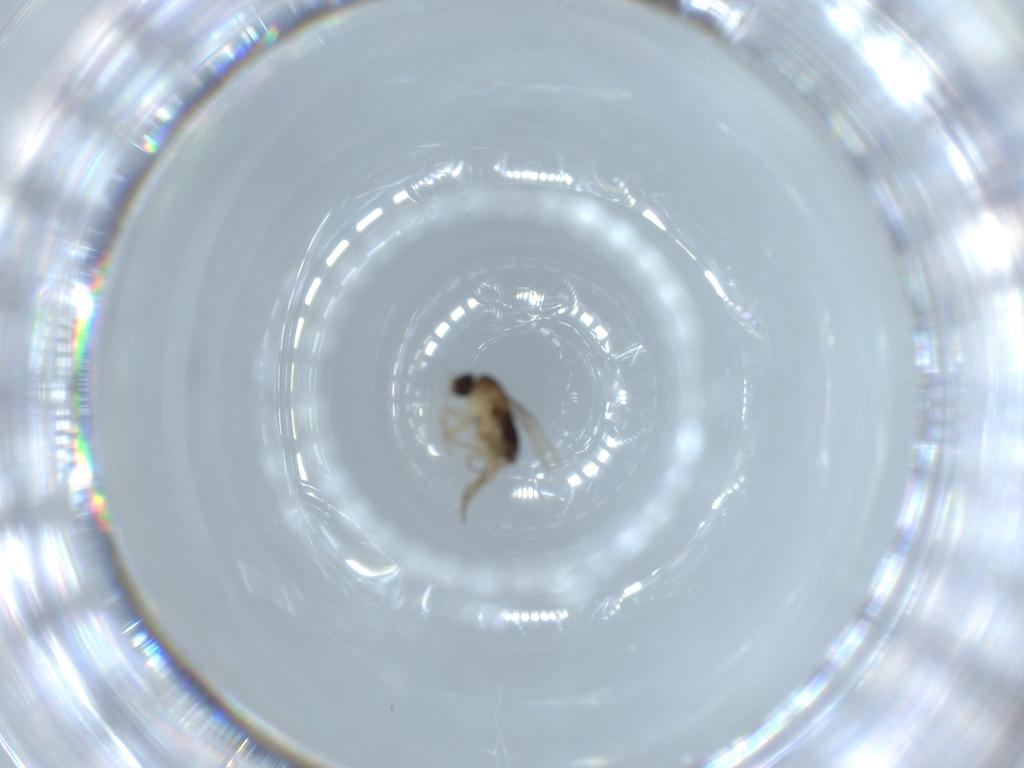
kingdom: Animalia
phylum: Arthropoda
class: Insecta
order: Diptera
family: Phoridae
